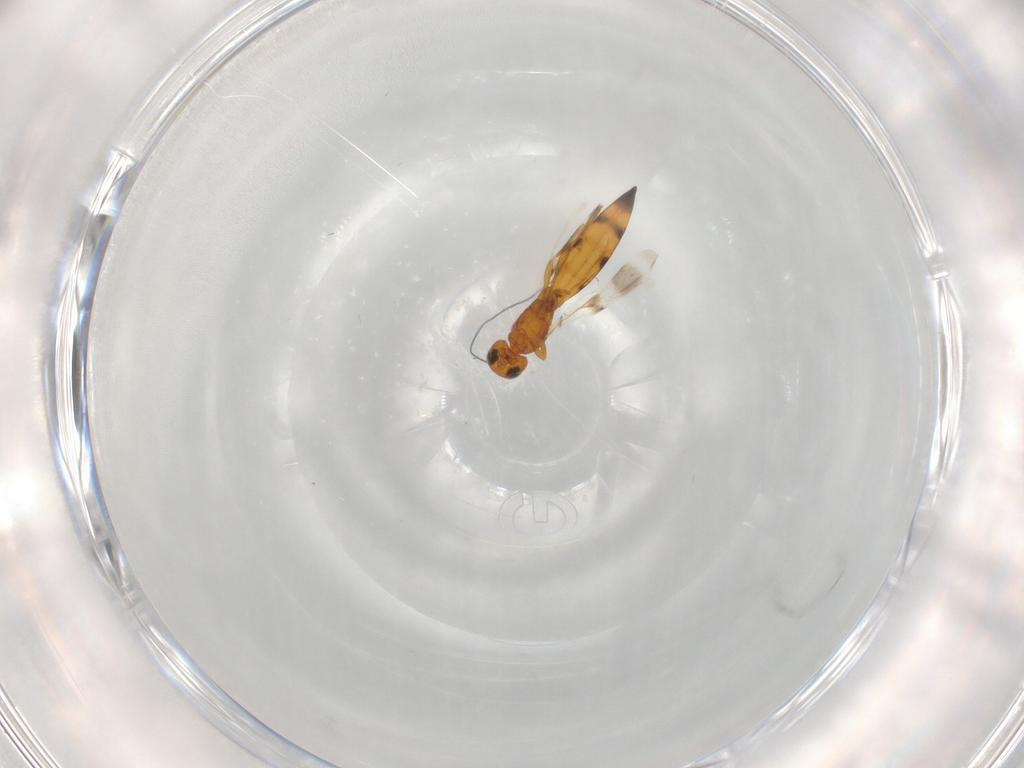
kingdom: Animalia
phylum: Arthropoda
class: Insecta
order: Hymenoptera
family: Scelionidae
